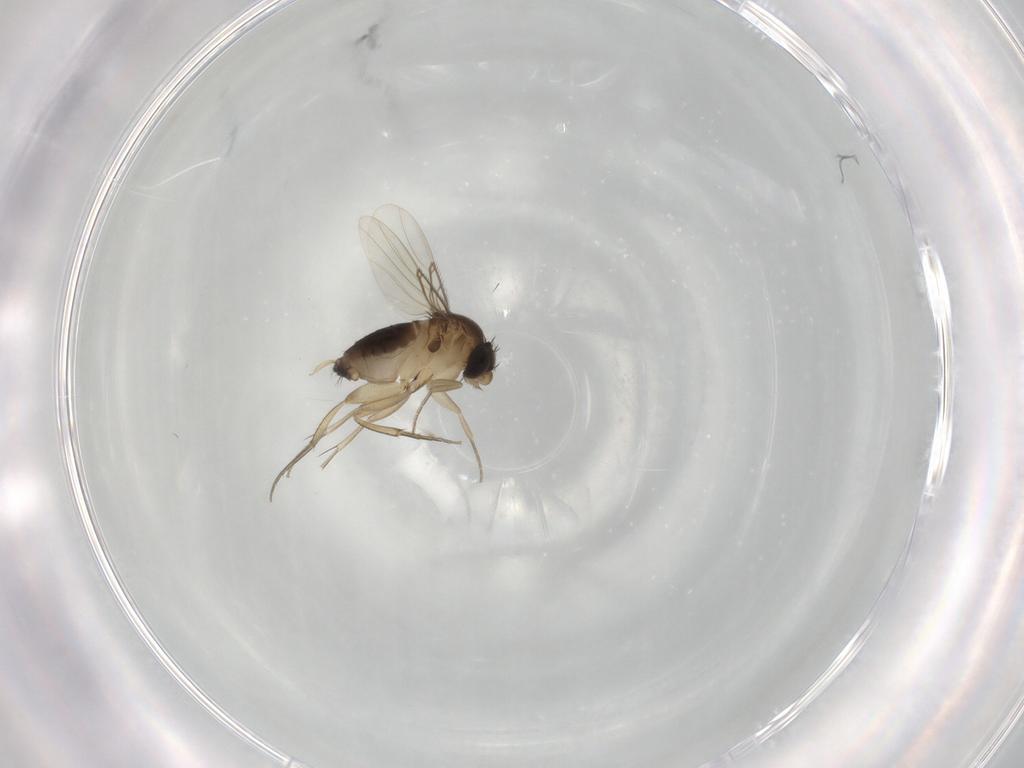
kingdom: Animalia
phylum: Arthropoda
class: Insecta
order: Diptera
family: Phoridae
